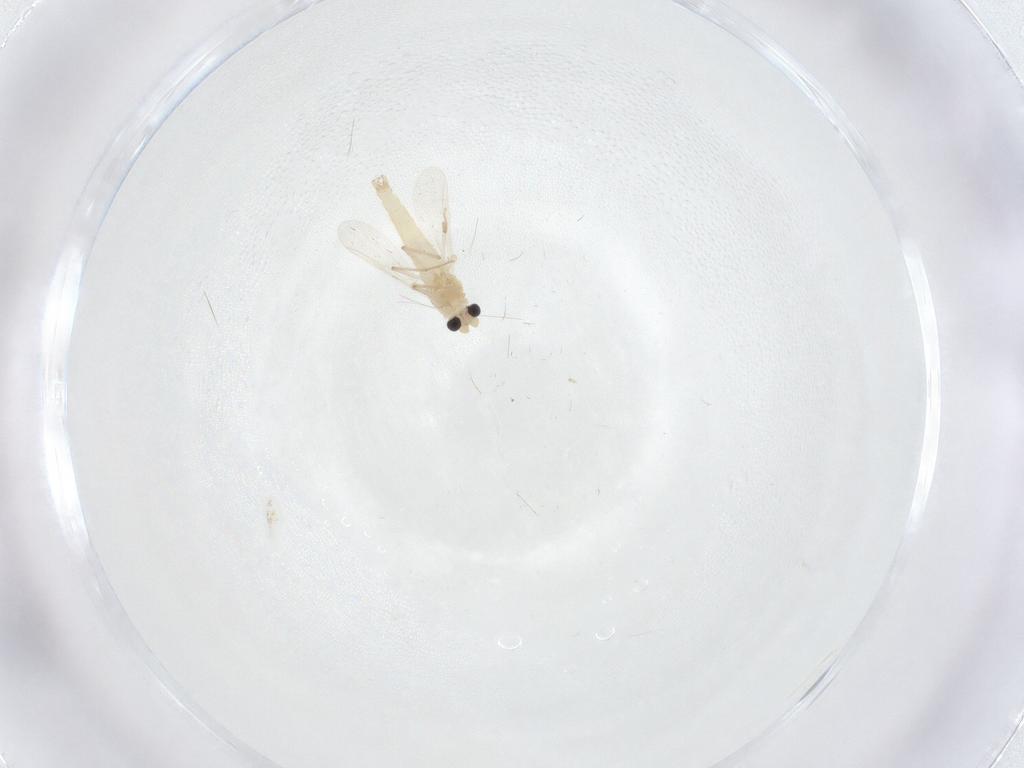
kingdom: Animalia
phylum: Arthropoda
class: Insecta
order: Diptera
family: Chironomidae
